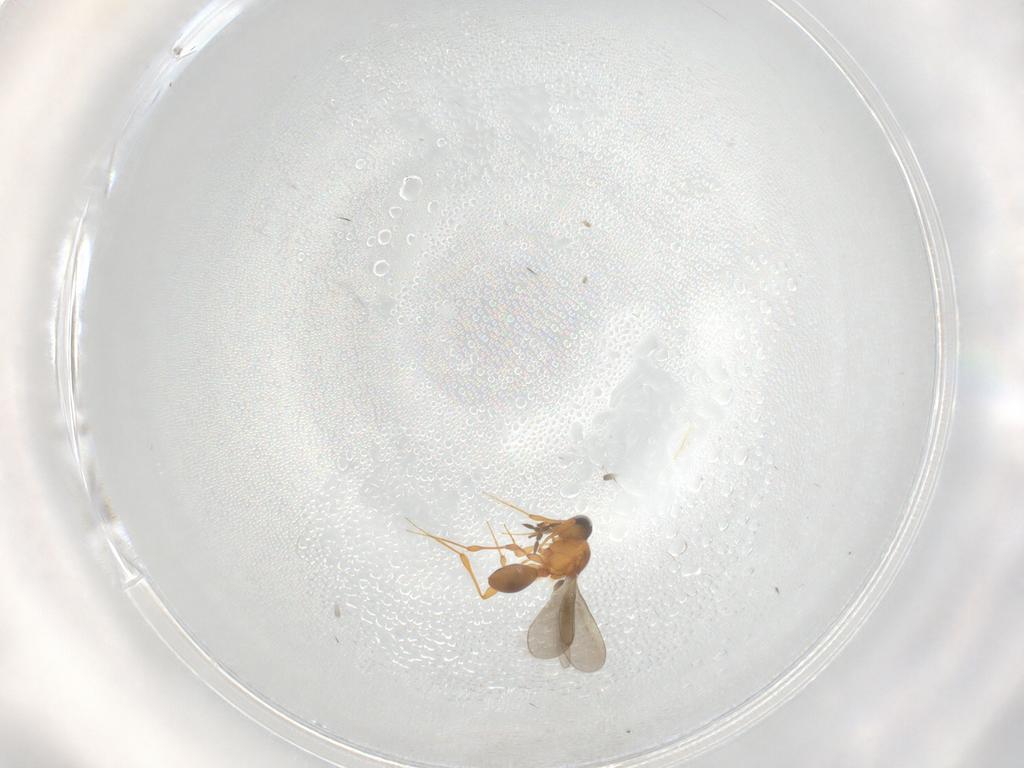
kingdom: Animalia
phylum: Arthropoda
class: Insecta
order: Hymenoptera
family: Platygastridae
